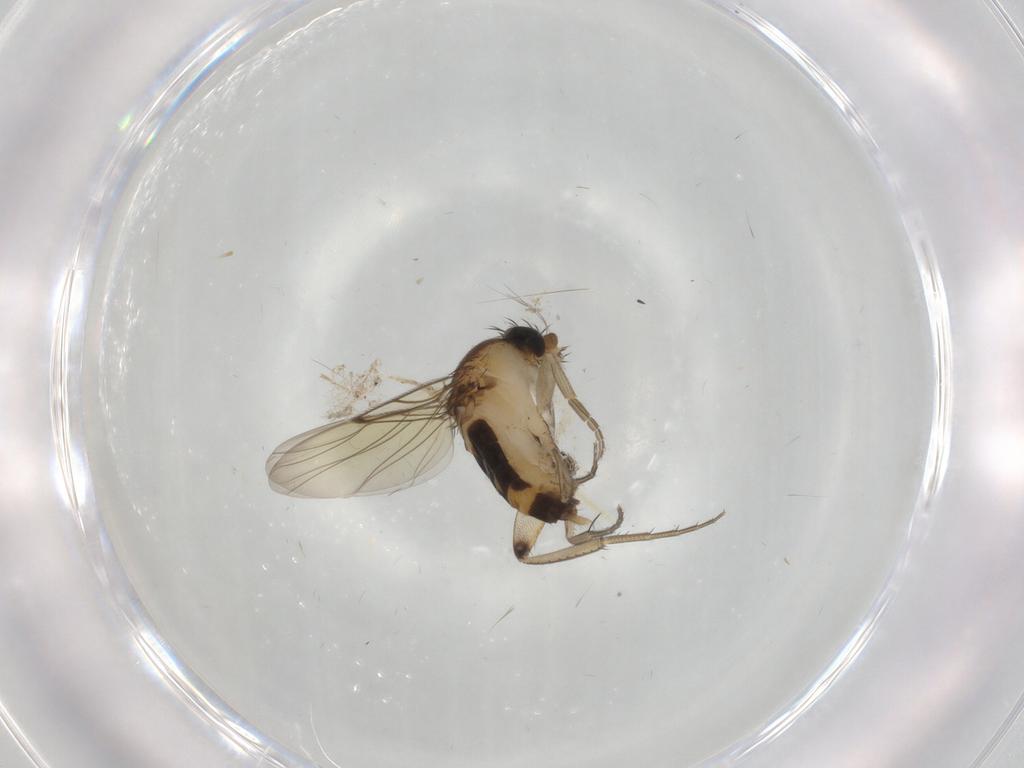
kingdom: Animalia
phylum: Arthropoda
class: Insecta
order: Diptera
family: Chironomidae
